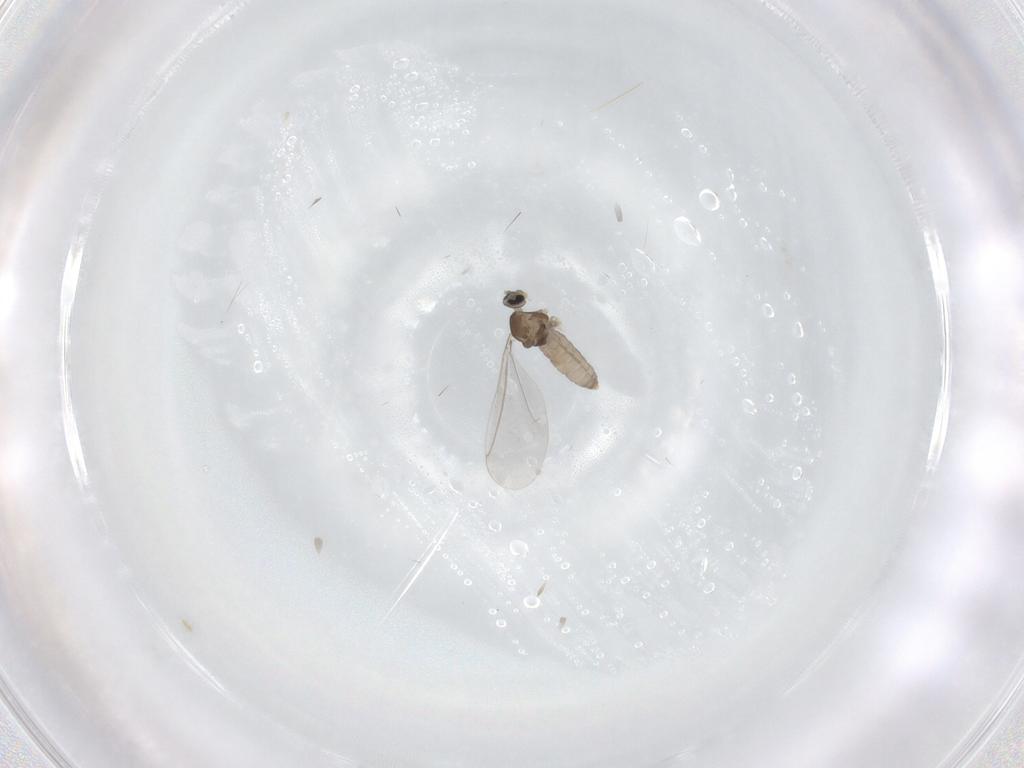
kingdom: Animalia
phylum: Arthropoda
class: Insecta
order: Diptera
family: Cecidomyiidae
